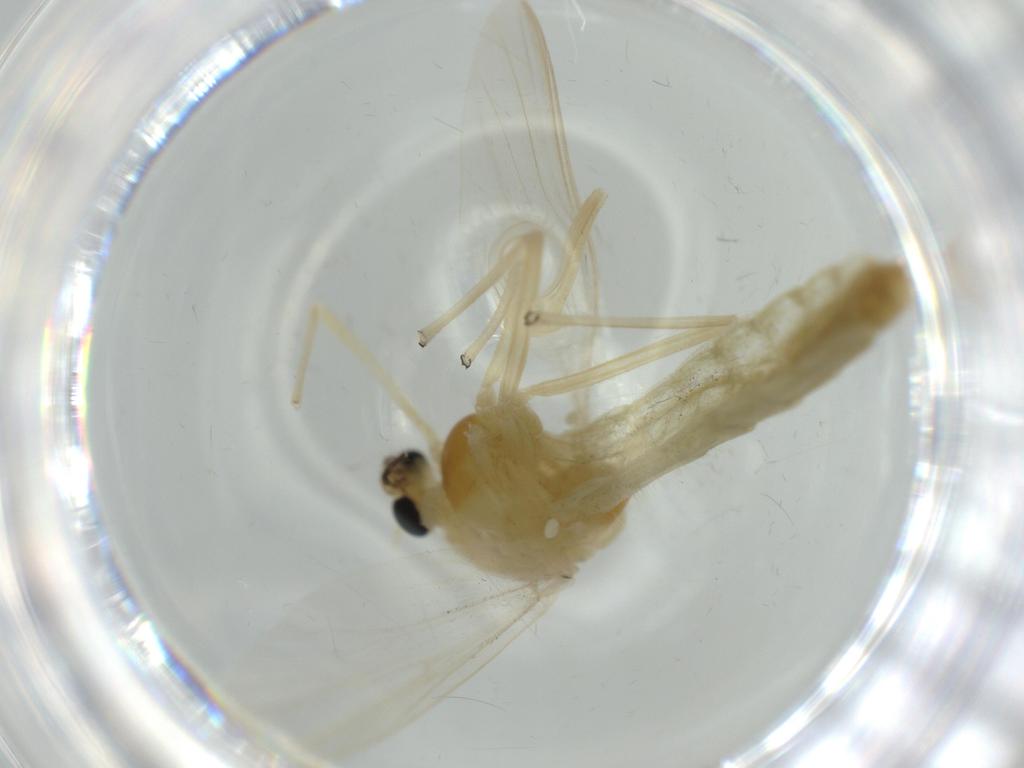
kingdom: Animalia
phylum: Arthropoda
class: Insecta
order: Diptera
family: Chironomidae
